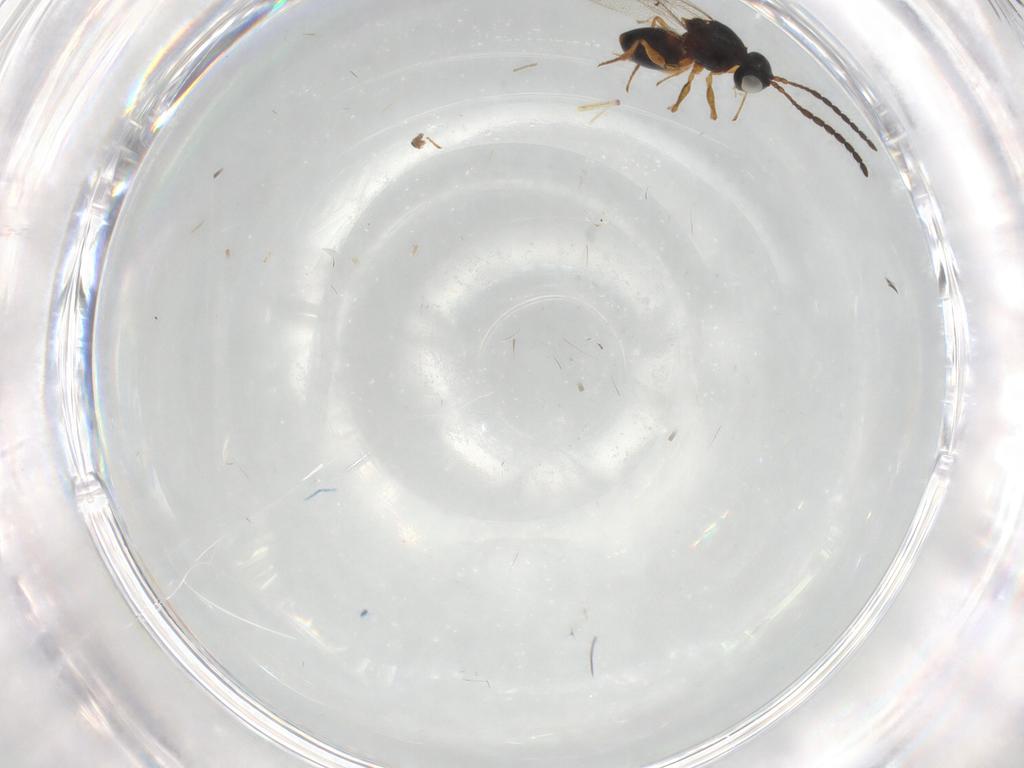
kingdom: Animalia
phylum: Arthropoda
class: Insecta
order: Hymenoptera
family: Figitidae
